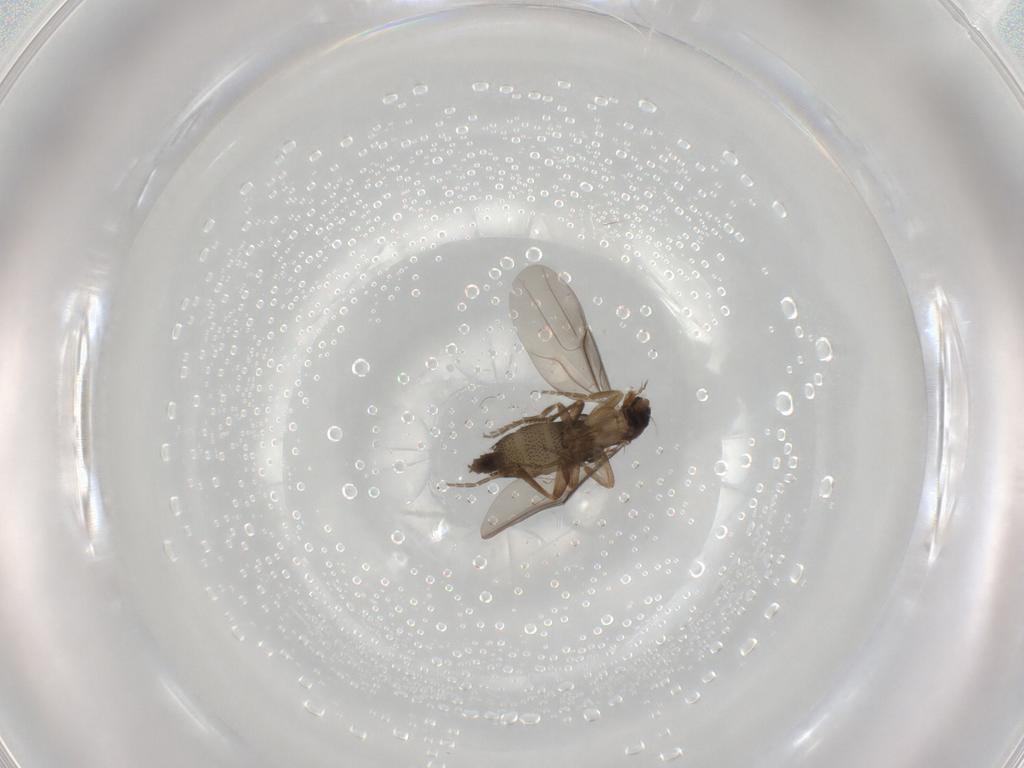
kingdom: Animalia
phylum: Arthropoda
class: Insecta
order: Diptera
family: Phoridae
